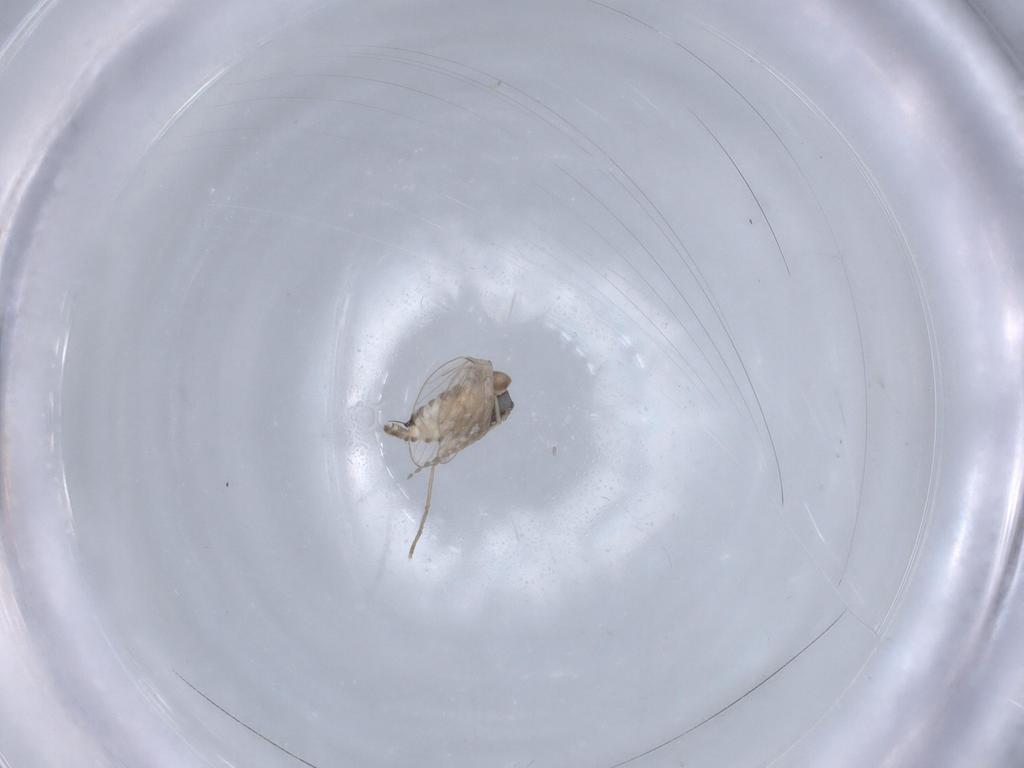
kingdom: Animalia
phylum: Arthropoda
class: Insecta
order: Diptera
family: Psychodidae
